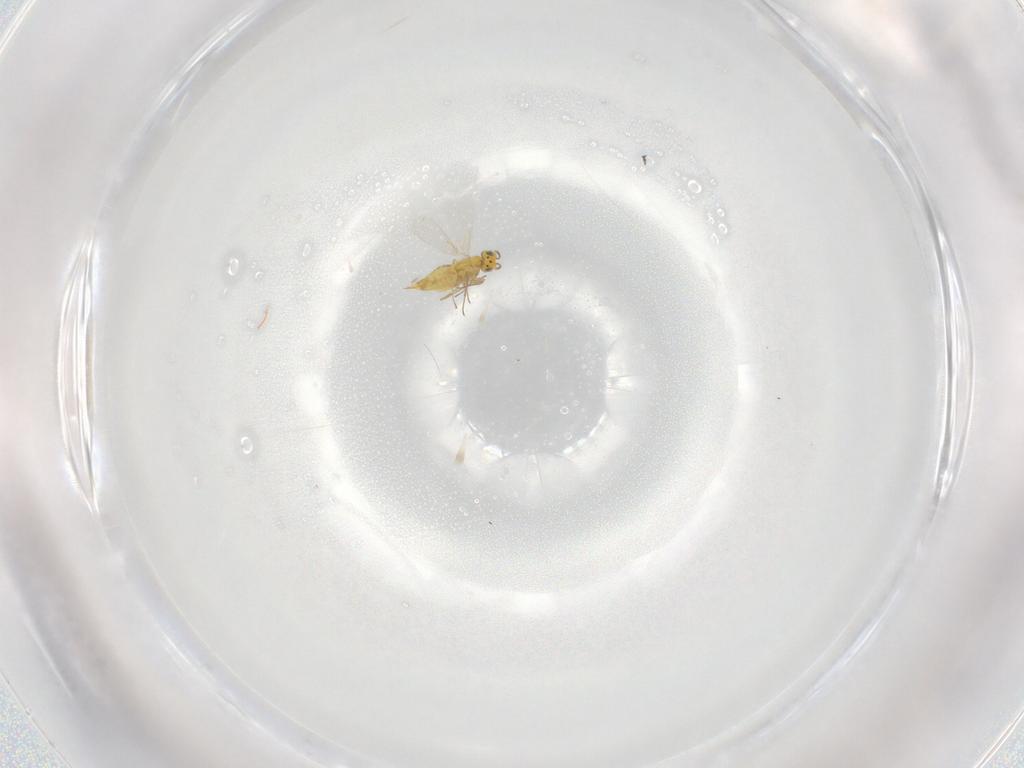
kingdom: Animalia
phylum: Arthropoda
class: Insecta
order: Hymenoptera
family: Aphelinidae
